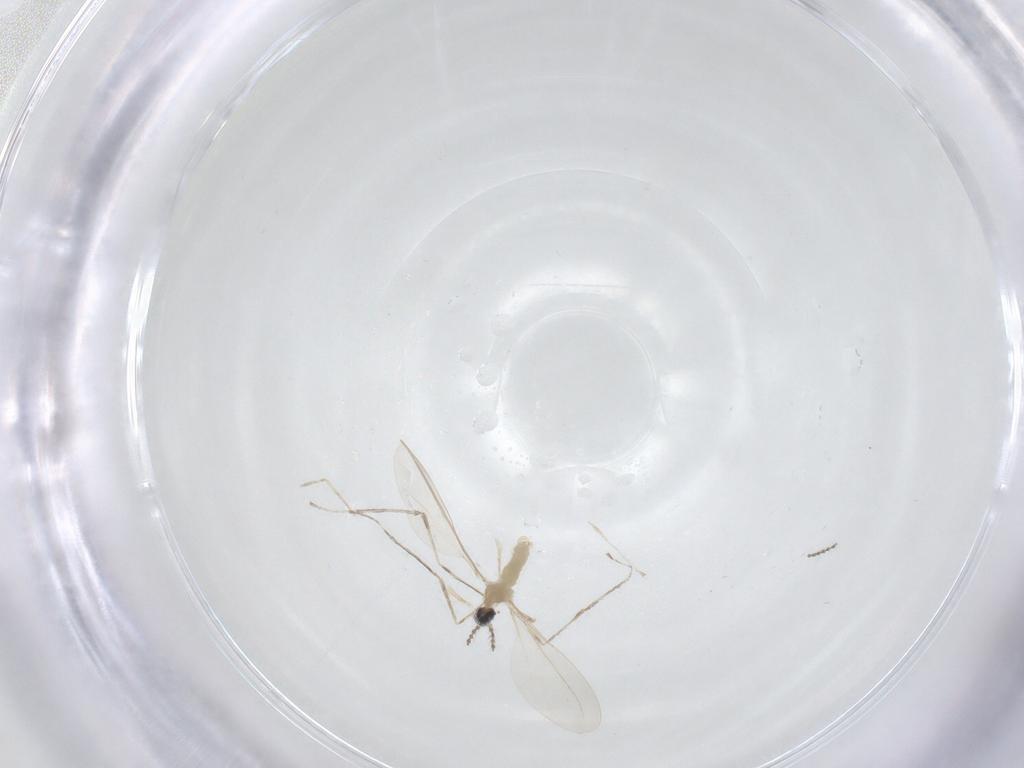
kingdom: Animalia
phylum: Arthropoda
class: Insecta
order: Diptera
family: Cecidomyiidae
